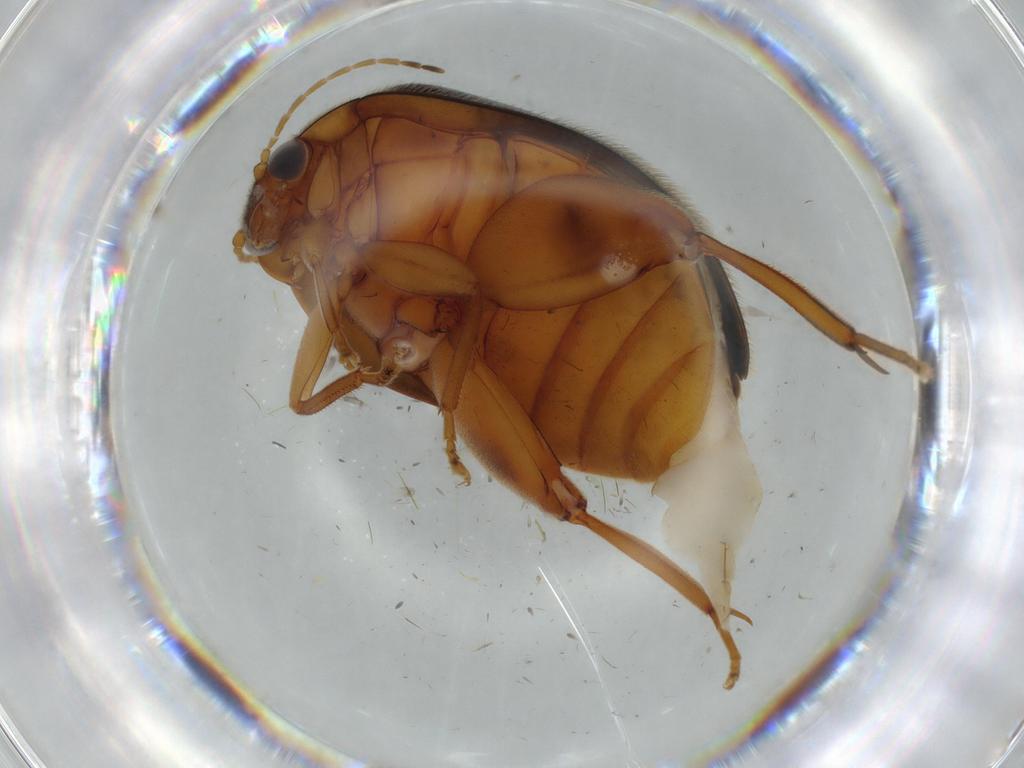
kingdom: Animalia
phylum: Arthropoda
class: Insecta
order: Coleoptera
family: Scirtidae
